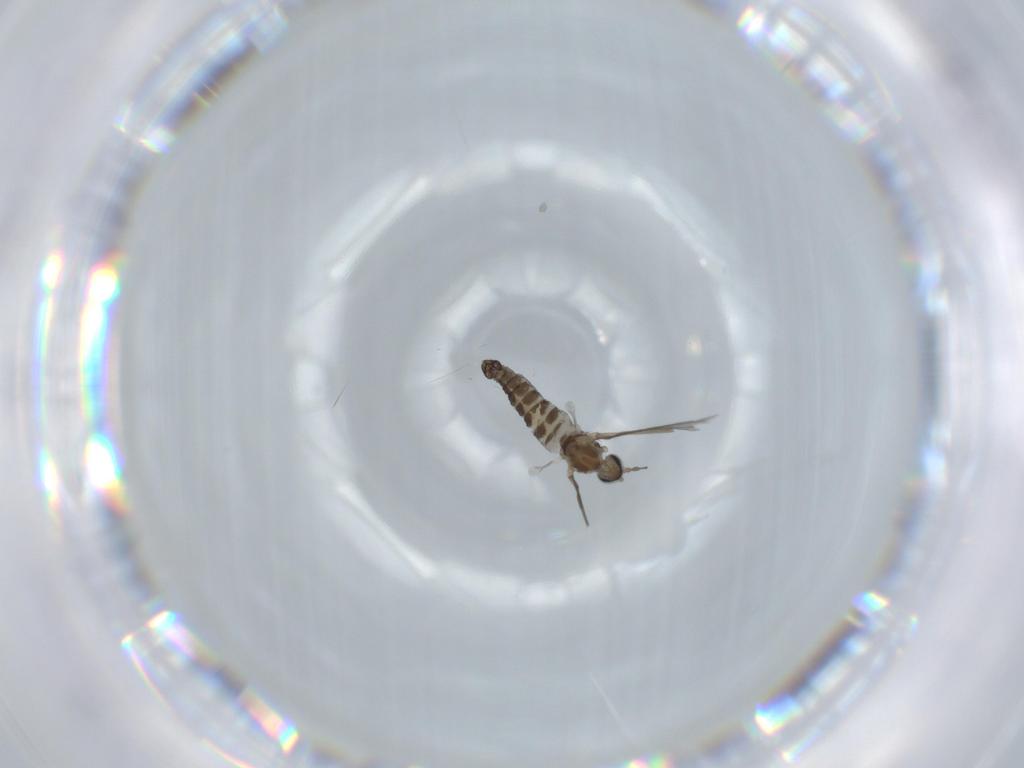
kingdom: Animalia
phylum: Arthropoda
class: Insecta
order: Diptera
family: Cecidomyiidae
